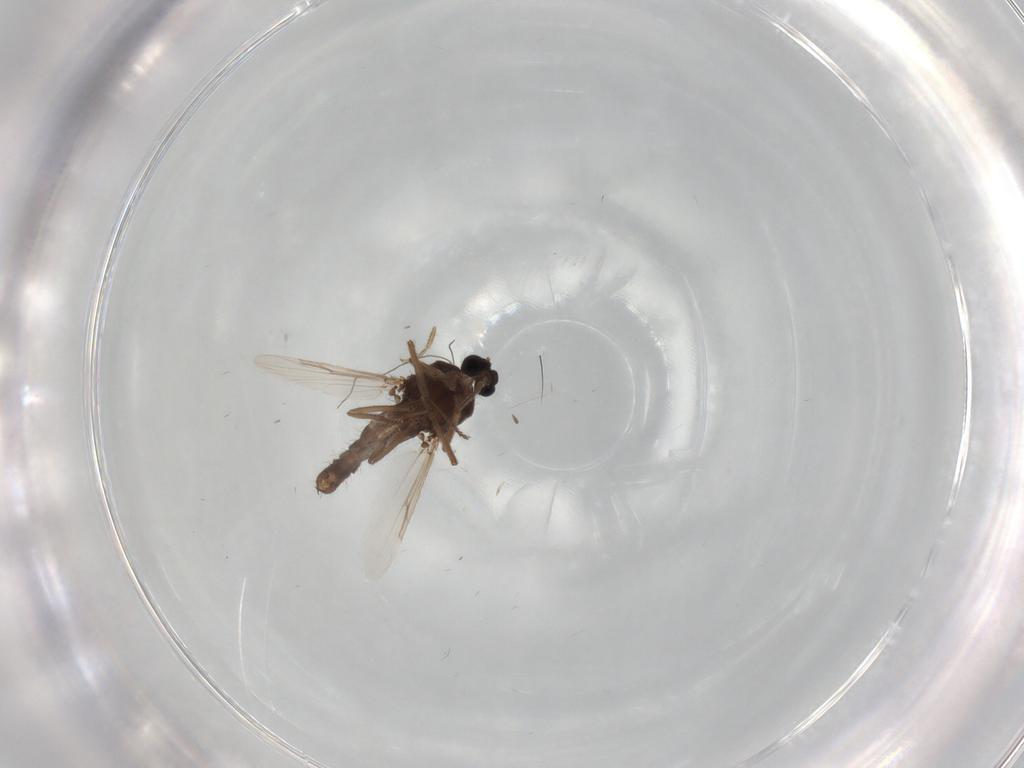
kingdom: Animalia
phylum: Arthropoda
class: Insecta
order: Diptera
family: Ceratopogonidae
